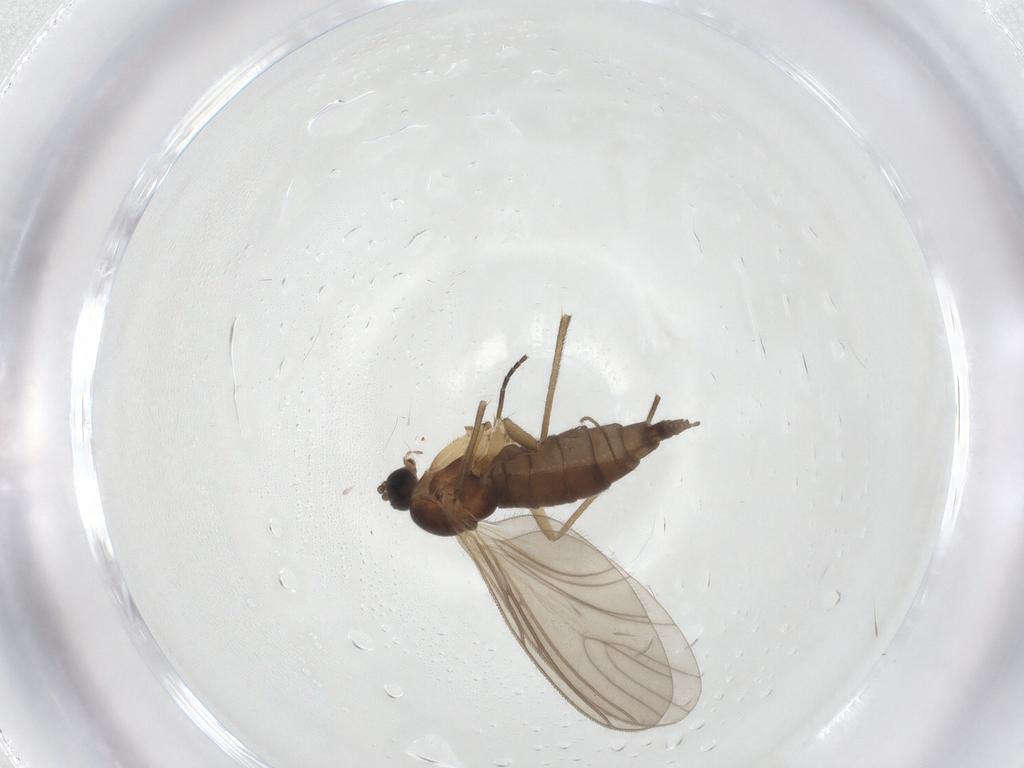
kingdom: Animalia
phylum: Arthropoda
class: Insecta
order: Diptera
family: Chironomidae
